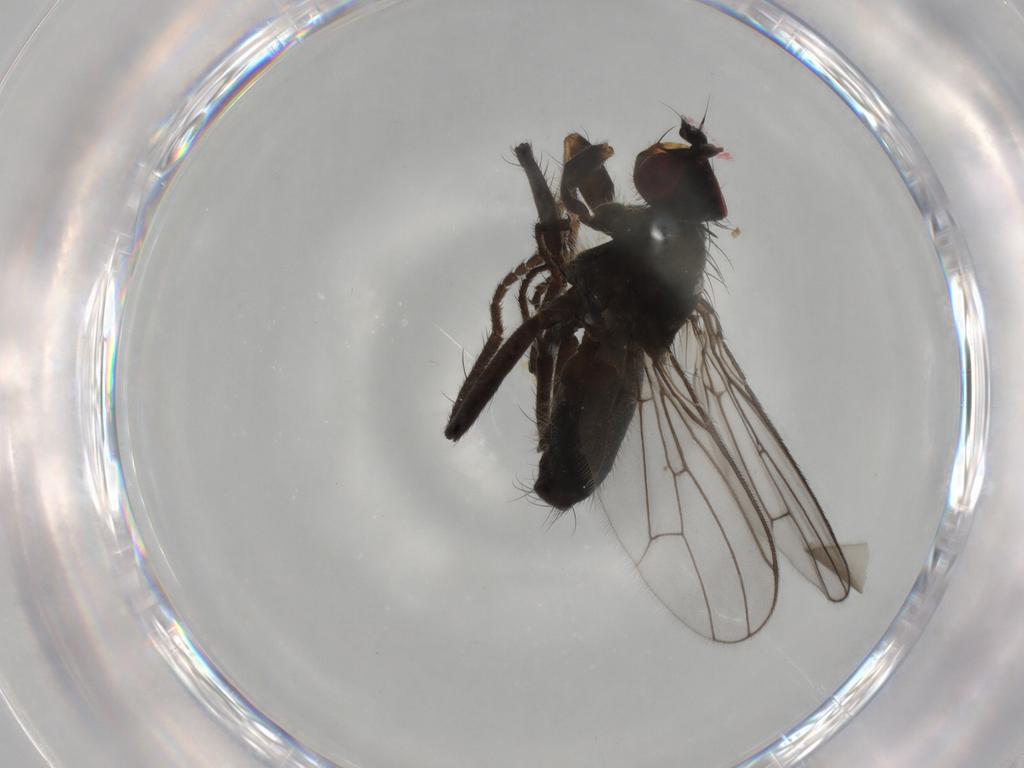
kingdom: Animalia
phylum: Arthropoda
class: Insecta
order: Diptera
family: Scathophagidae
